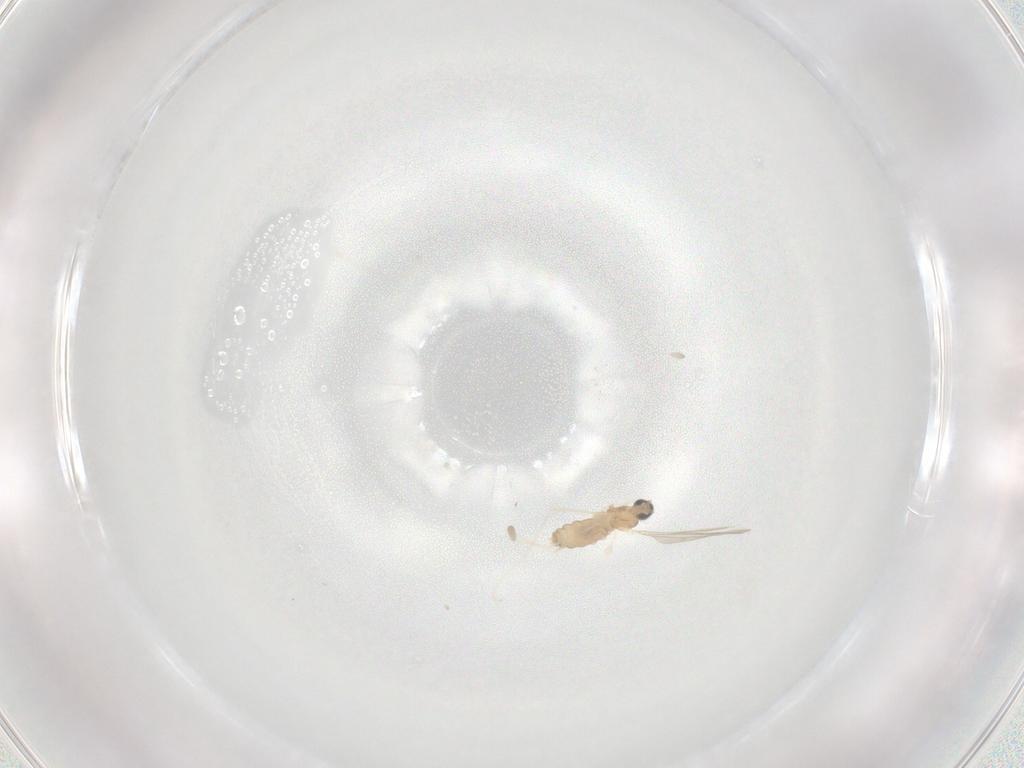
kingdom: Animalia
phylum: Arthropoda
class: Insecta
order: Diptera
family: Cecidomyiidae
